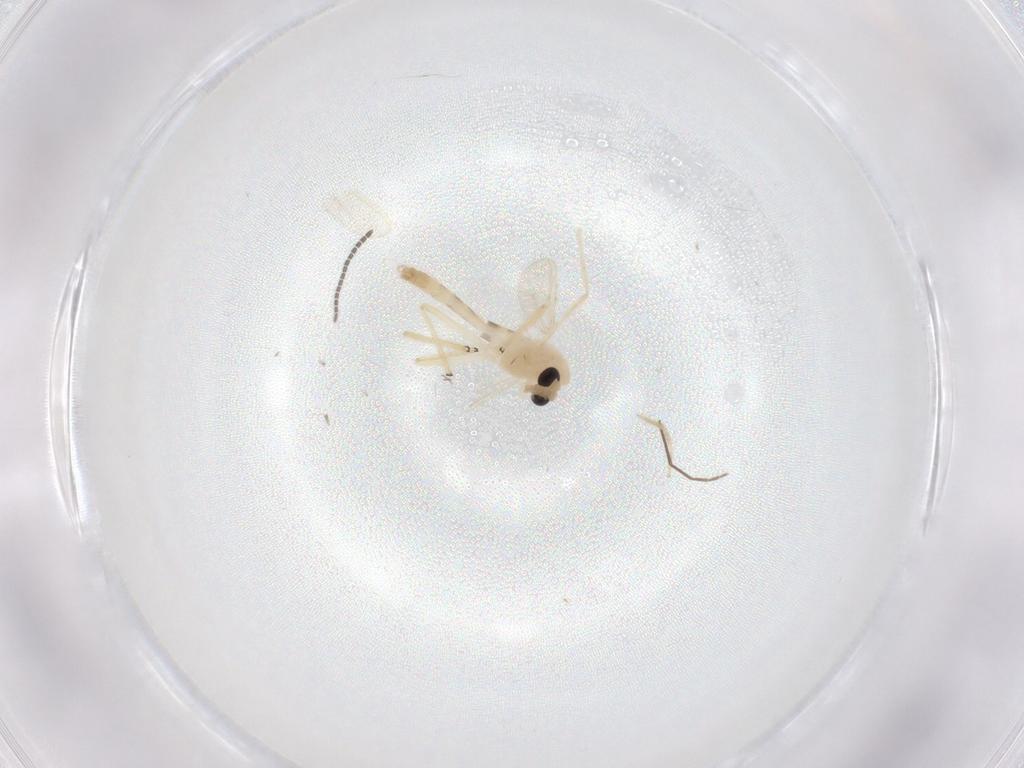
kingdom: Animalia
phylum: Arthropoda
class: Insecta
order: Diptera
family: Chironomidae
